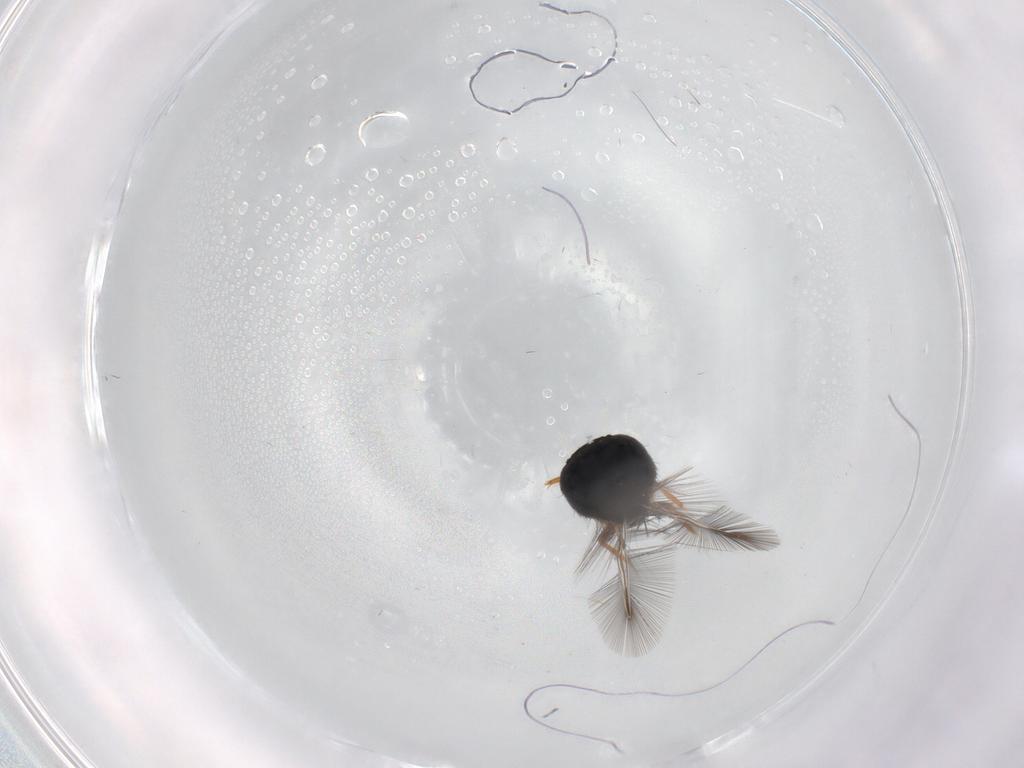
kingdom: Animalia
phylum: Arthropoda
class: Insecta
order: Coleoptera
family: Ptiliidae
